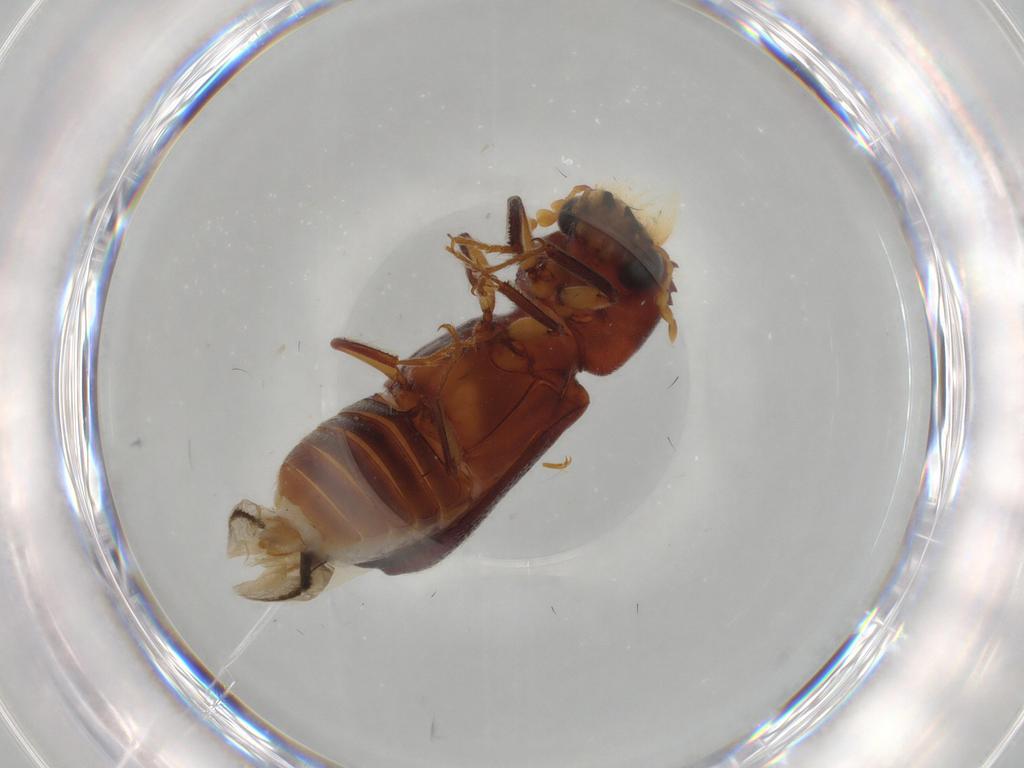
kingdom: Animalia
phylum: Arthropoda
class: Insecta
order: Coleoptera
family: Bostrichidae
